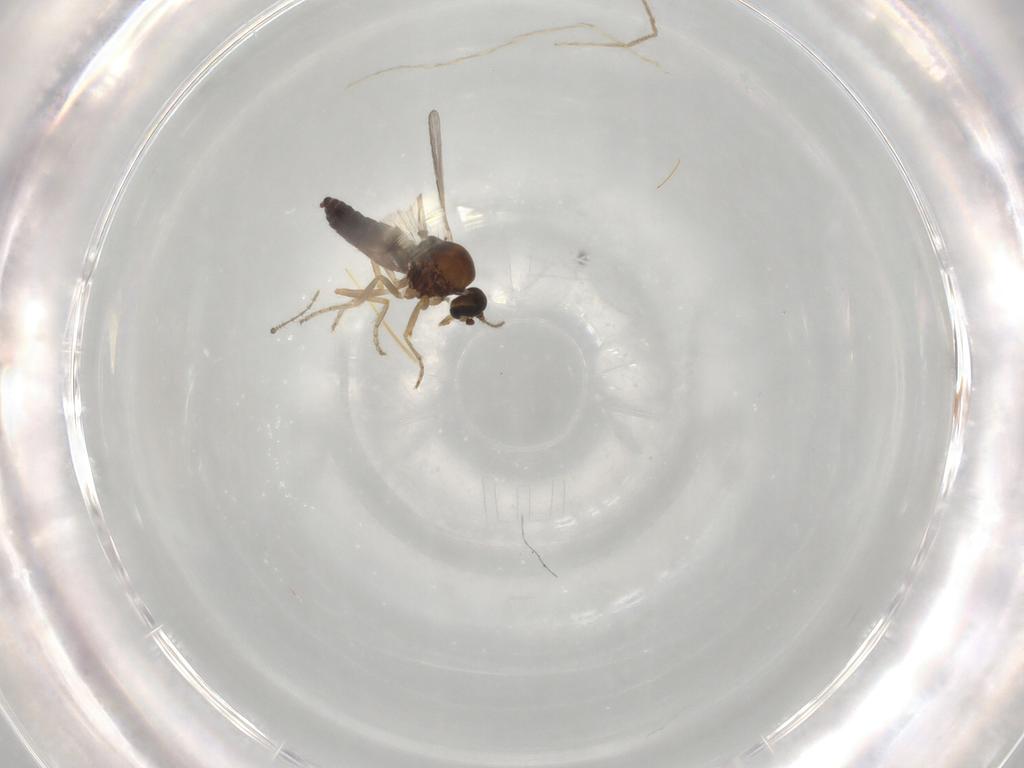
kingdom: Animalia
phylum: Arthropoda
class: Insecta
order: Diptera
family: Ceratopogonidae
